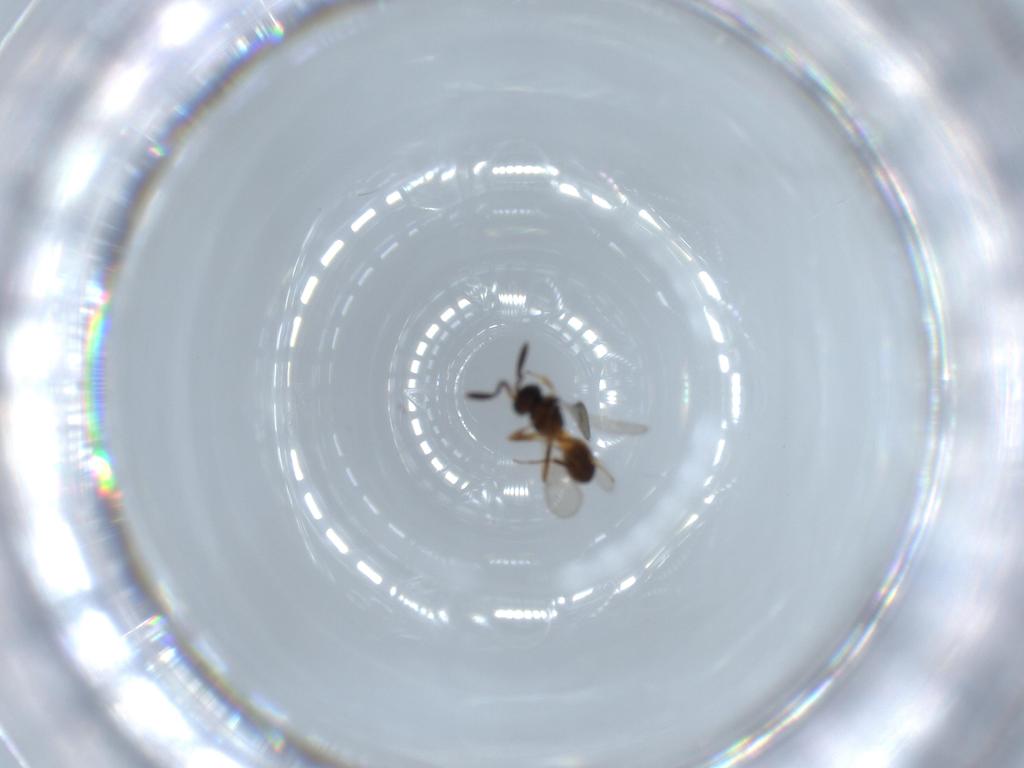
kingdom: Animalia
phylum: Arthropoda
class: Insecta
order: Hymenoptera
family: Scelionidae
